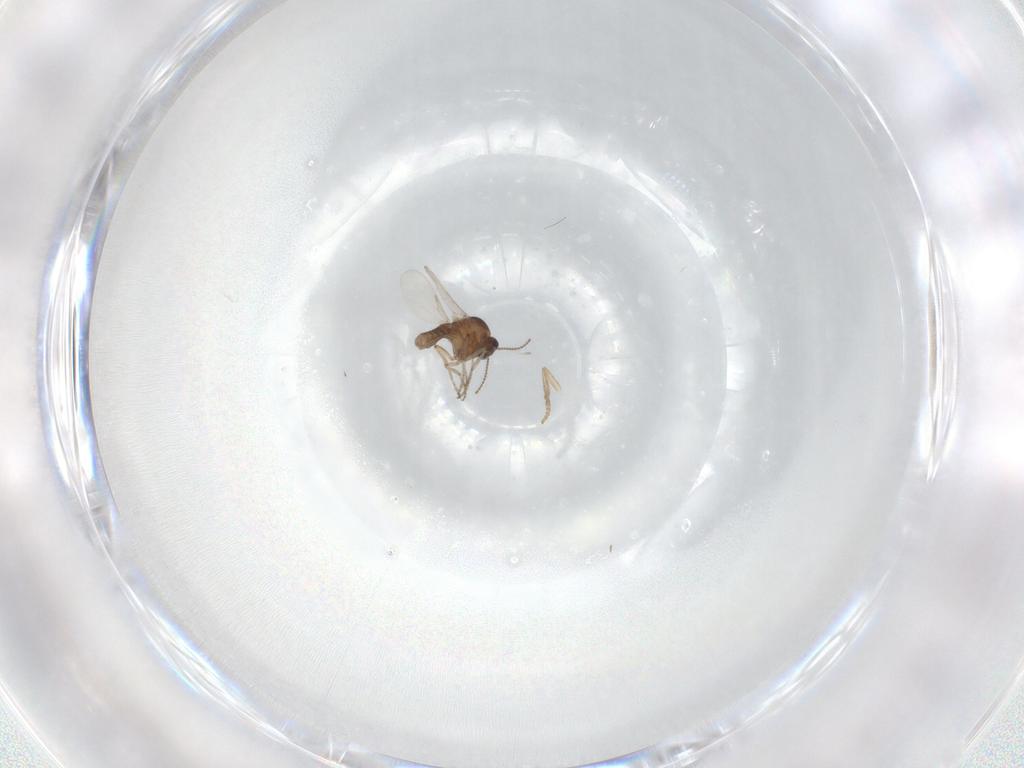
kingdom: Animalia
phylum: Arthropoda
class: Insecta
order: Diptera
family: Ceratopogonidae
